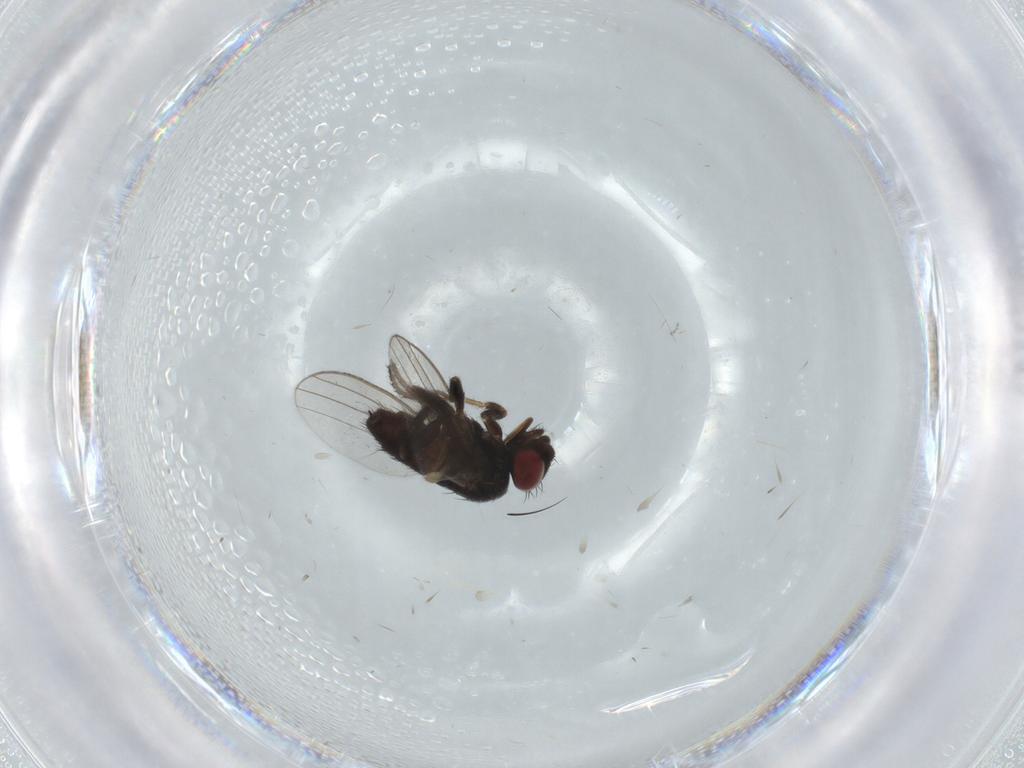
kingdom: Animalia
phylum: Arthropoda
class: Insecta
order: Diptera
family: Milichiidae
